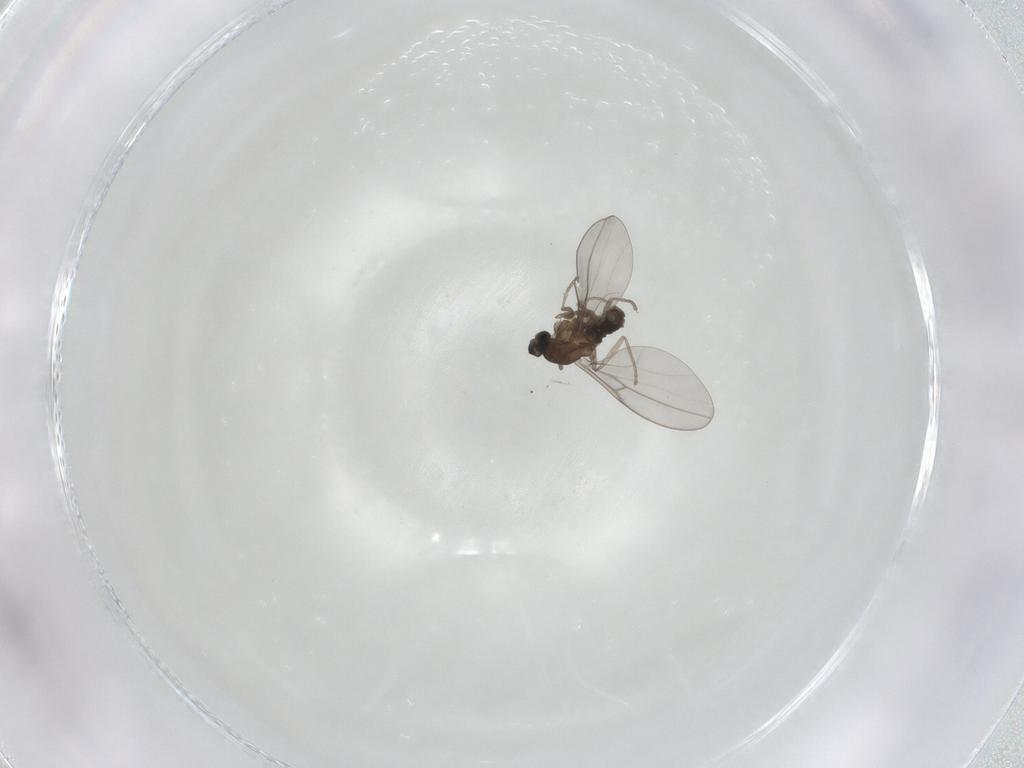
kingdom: Animalia
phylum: Arthropoda
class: Insecta
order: Diptera
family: Cecidomyiidae
